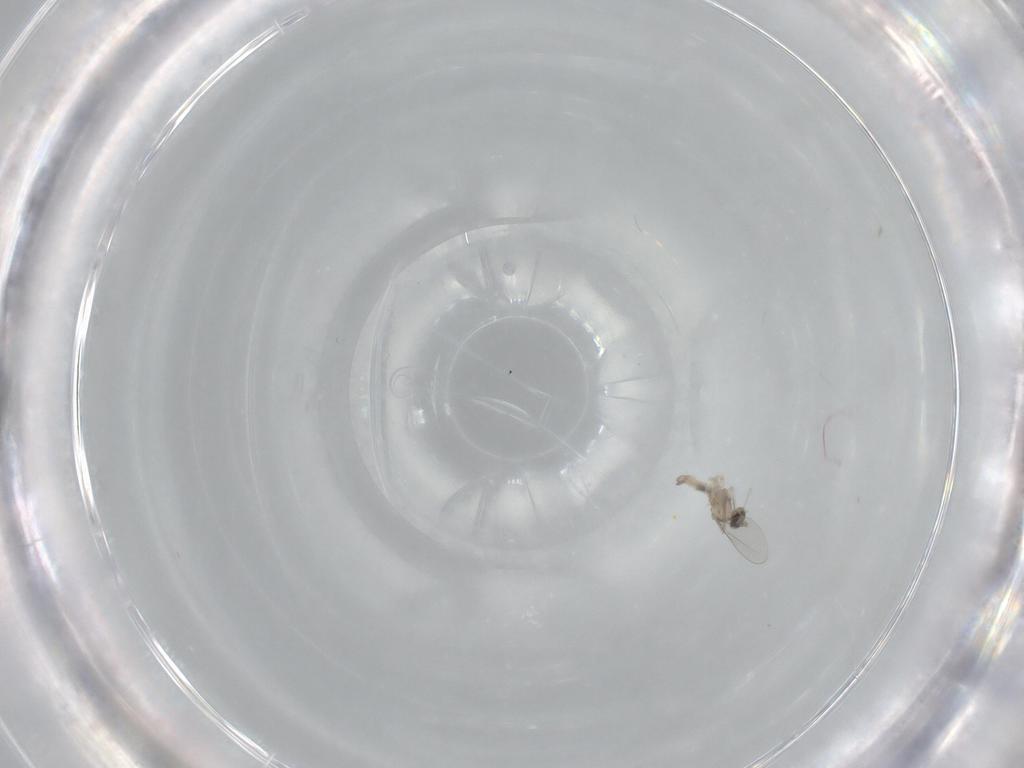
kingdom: Animalia
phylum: Arthropoda
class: Insecta
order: Diptera
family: Cecidomyiidae
